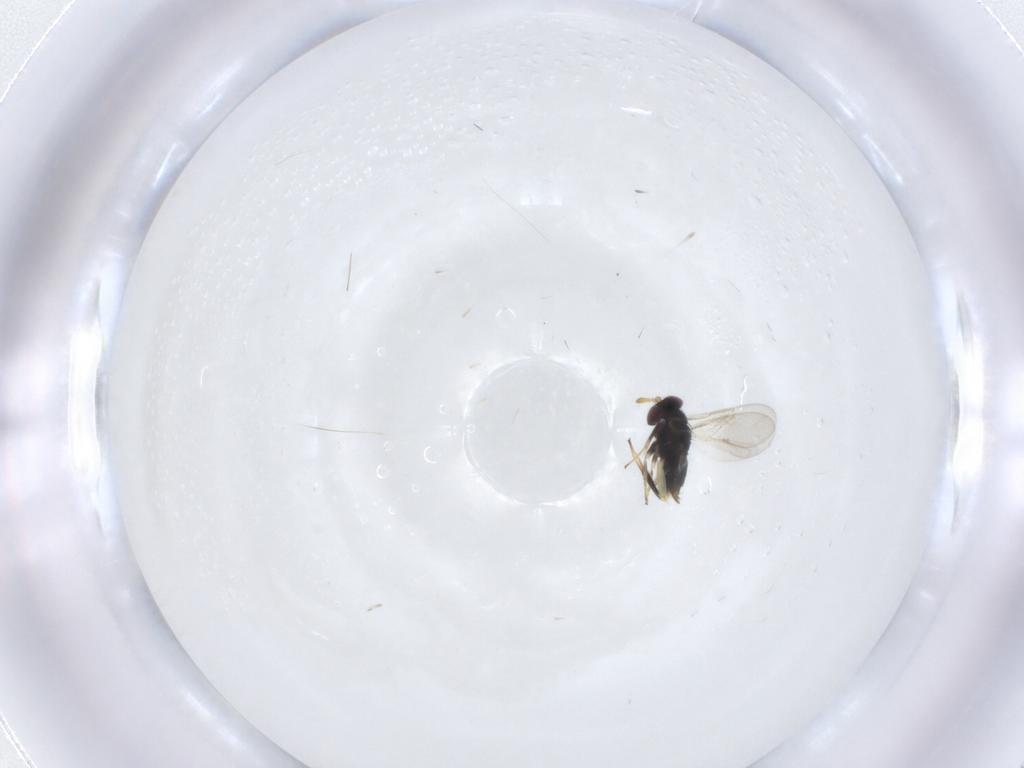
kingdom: Animalia
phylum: Arthropoda
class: Insecta
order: Hymenoptera
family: Aphelinidae
